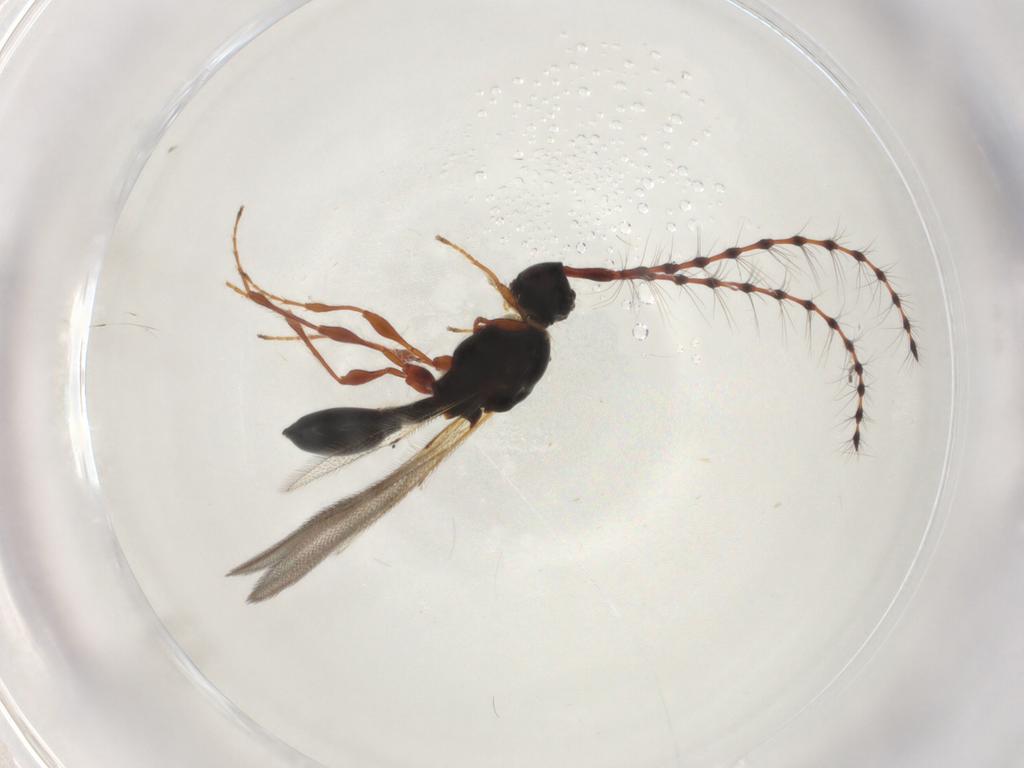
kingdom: Animalia
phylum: Arthropoda
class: Insecta
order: Hymenoptera
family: Diapriidae
